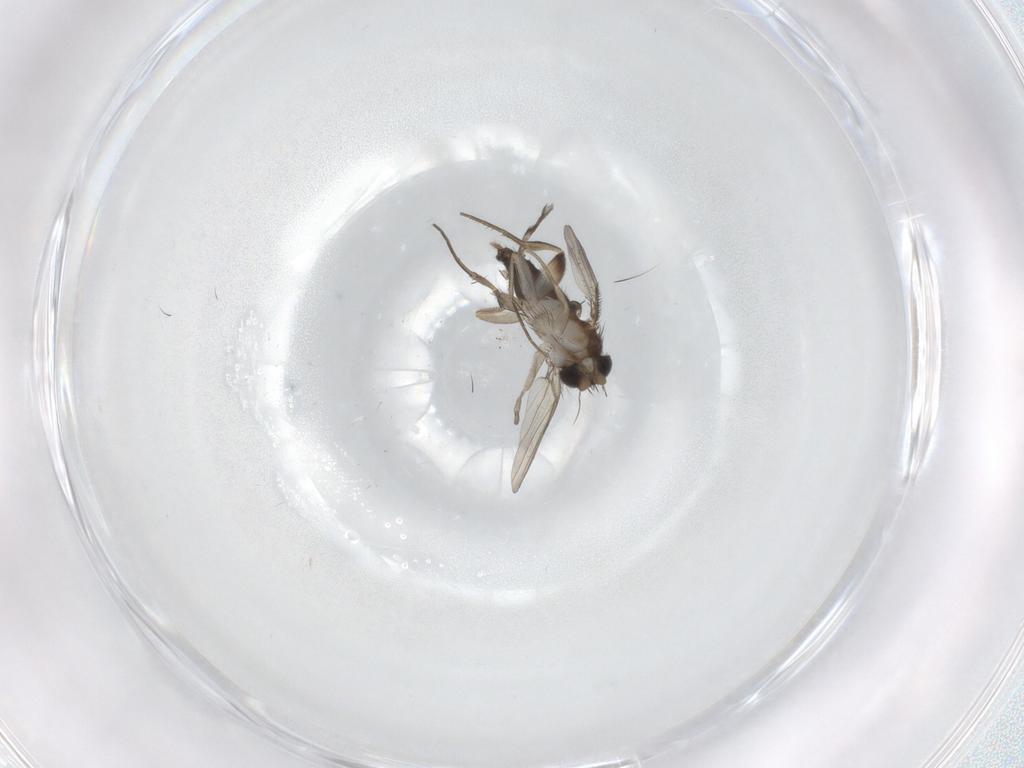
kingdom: Animalia
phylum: Arthropoda
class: Insecta
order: Diptera
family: Phoridae
